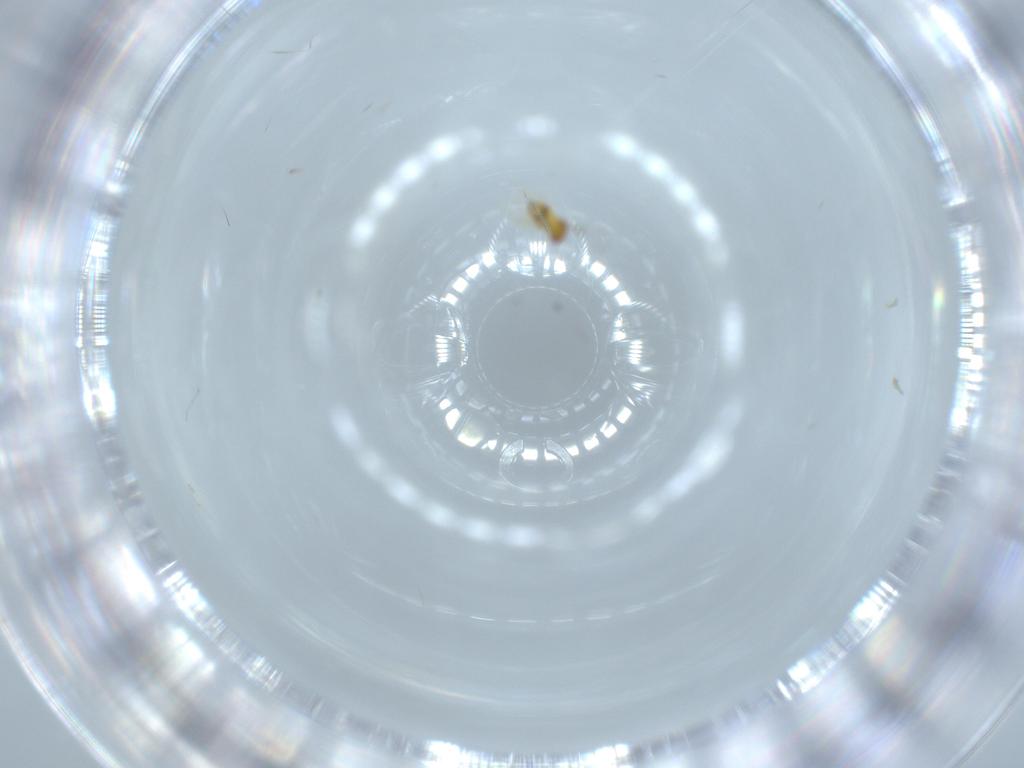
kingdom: Animalia
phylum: Arthropoda
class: Insecta
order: Hymenoptera
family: Trichogrammatidae
